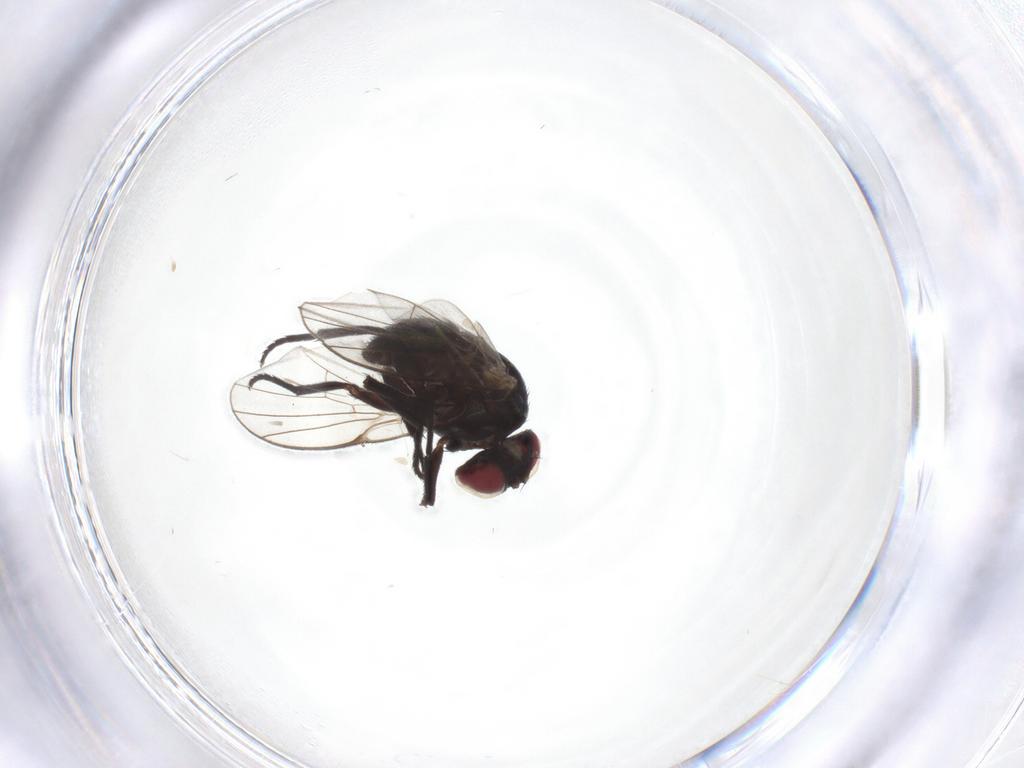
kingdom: Animalia
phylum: Arthropoda
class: Insecta
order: Diptera
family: Agromyzidae
